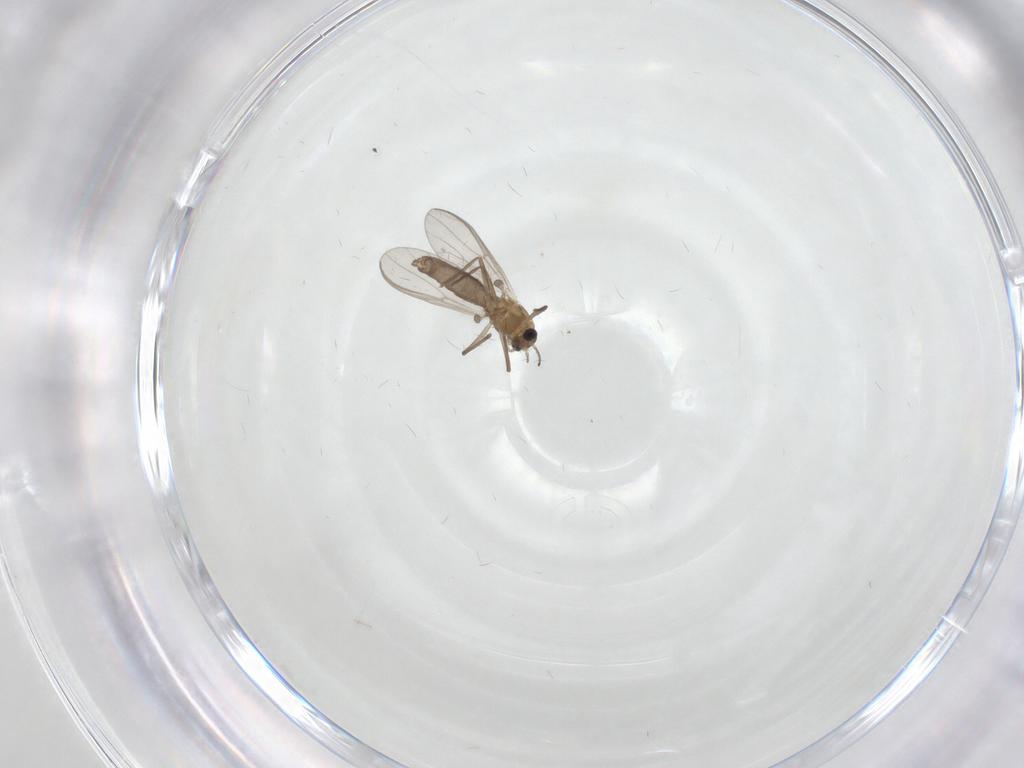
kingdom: Animalia
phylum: Arthropoda
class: Insecta
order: Diptera
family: Chironomidae
